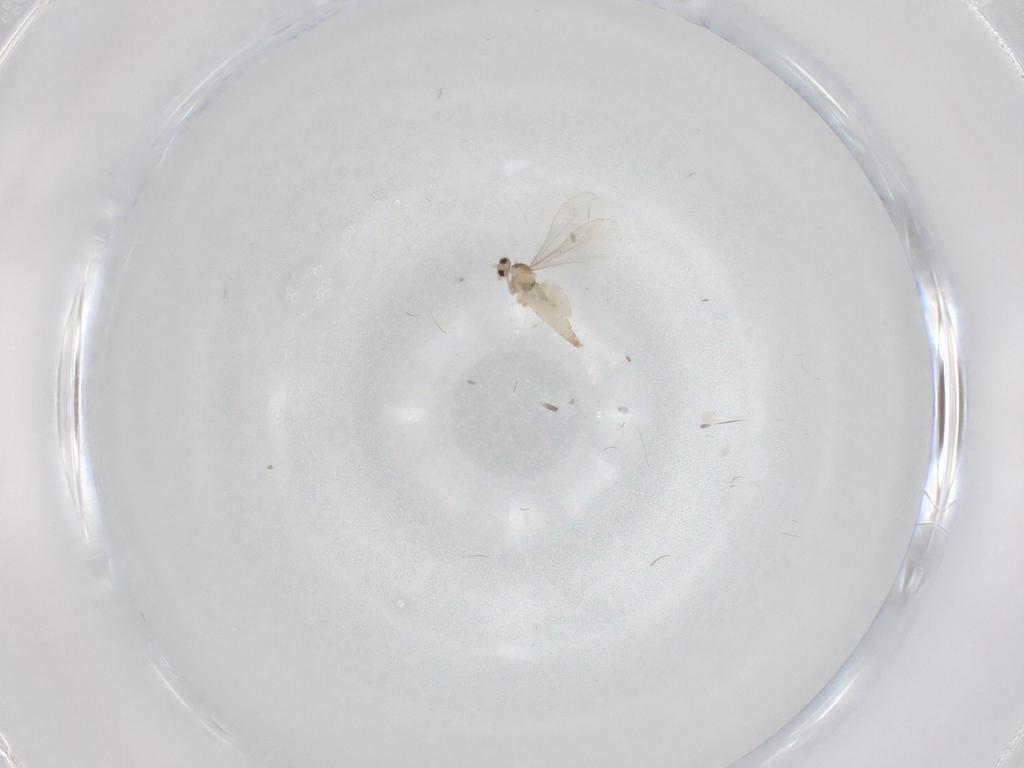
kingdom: Animalia
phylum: Arthropoda
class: Insecta
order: Diptera
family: Cecidomyiidae
